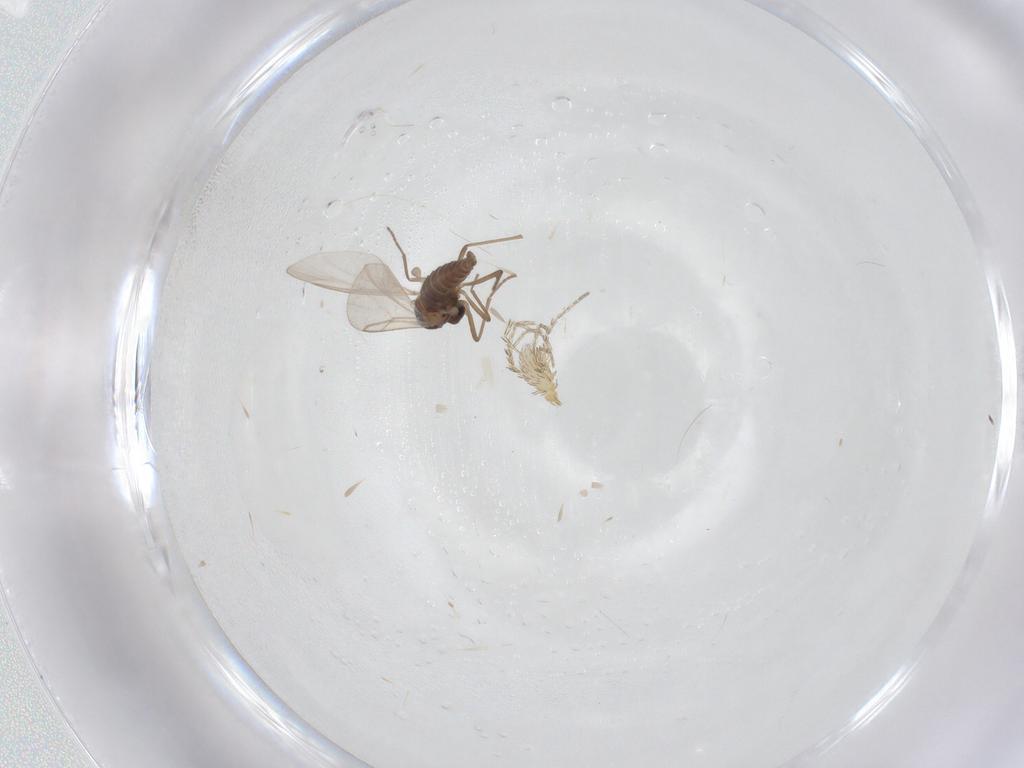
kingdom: Animalia
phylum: Arthropoda
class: Insecta
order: Diptera
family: Cecidomyiidae
